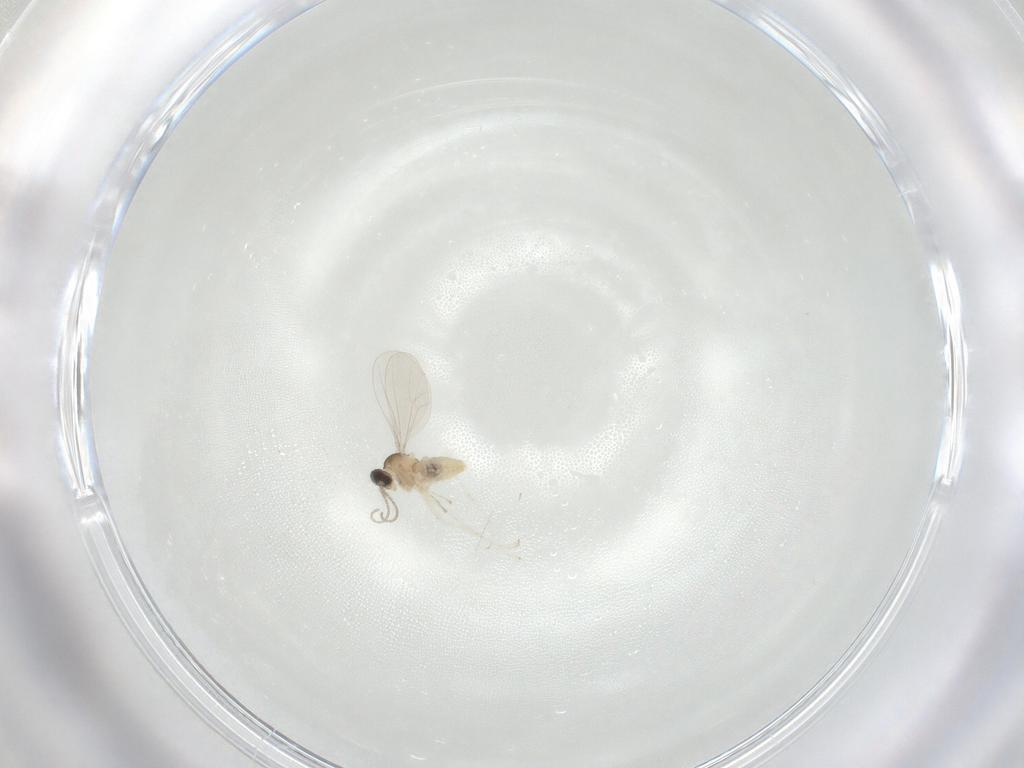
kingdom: Animalia
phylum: Arthropoda
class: Insecta
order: Diptera
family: Cecidomyiidae
